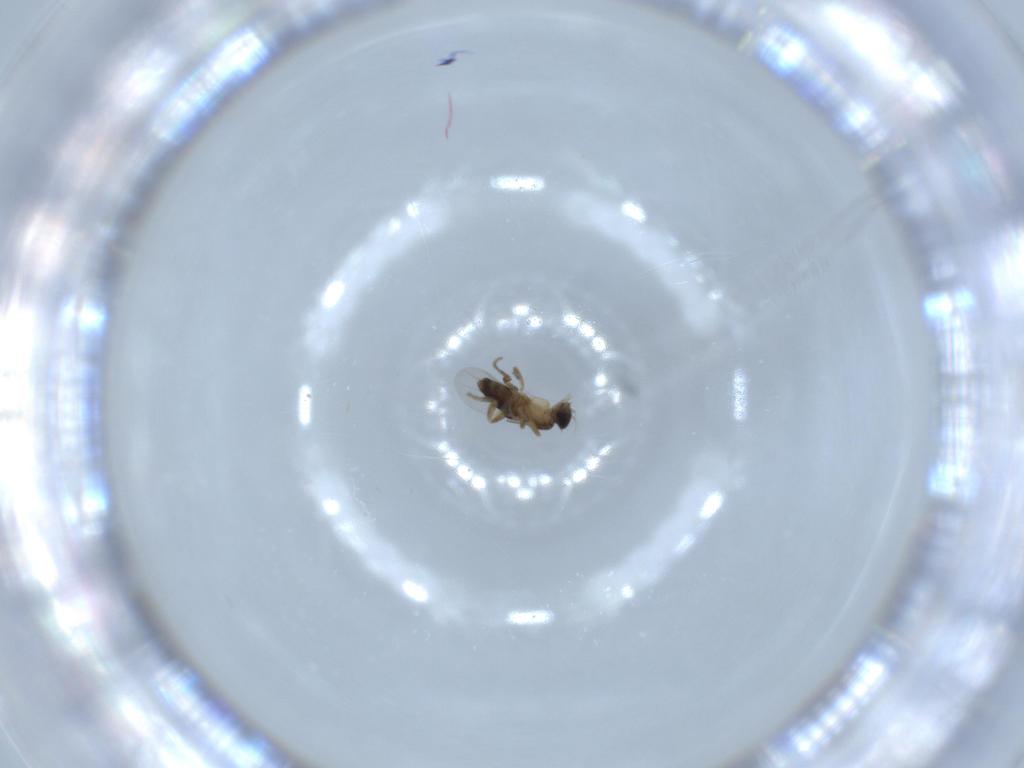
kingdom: Animalia
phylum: Arthropoda
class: Insecta
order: Diptera
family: Phoridae
